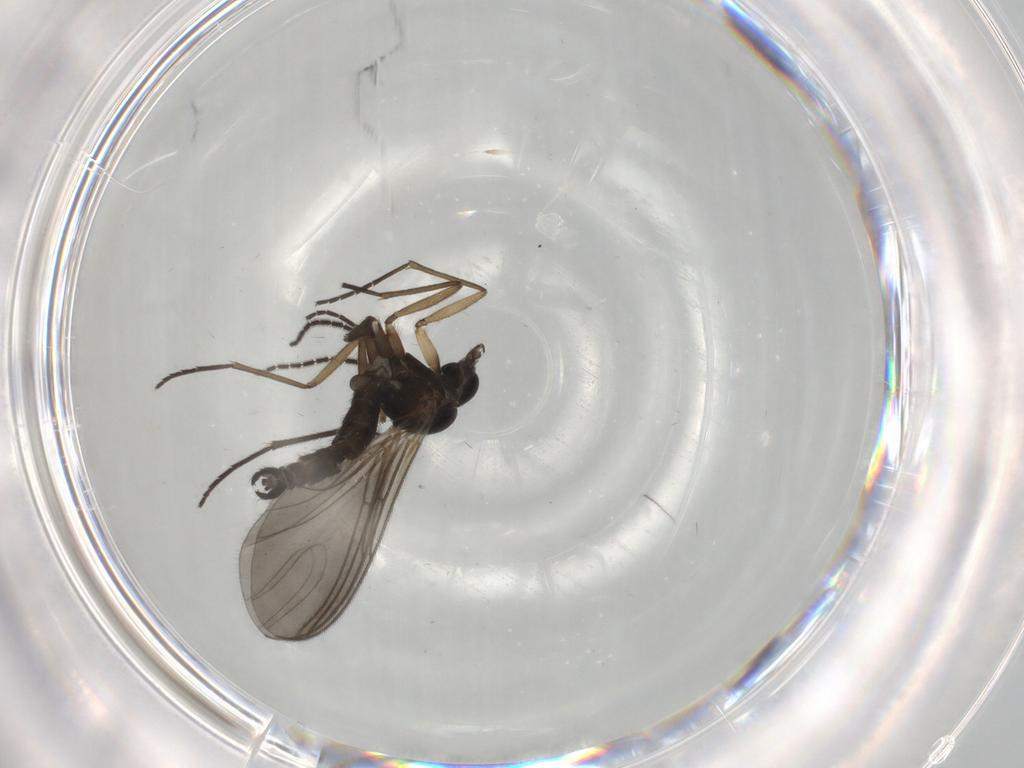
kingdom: Animalia
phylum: Arthropoda
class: Insecta
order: Diptera
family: Sciaridae
